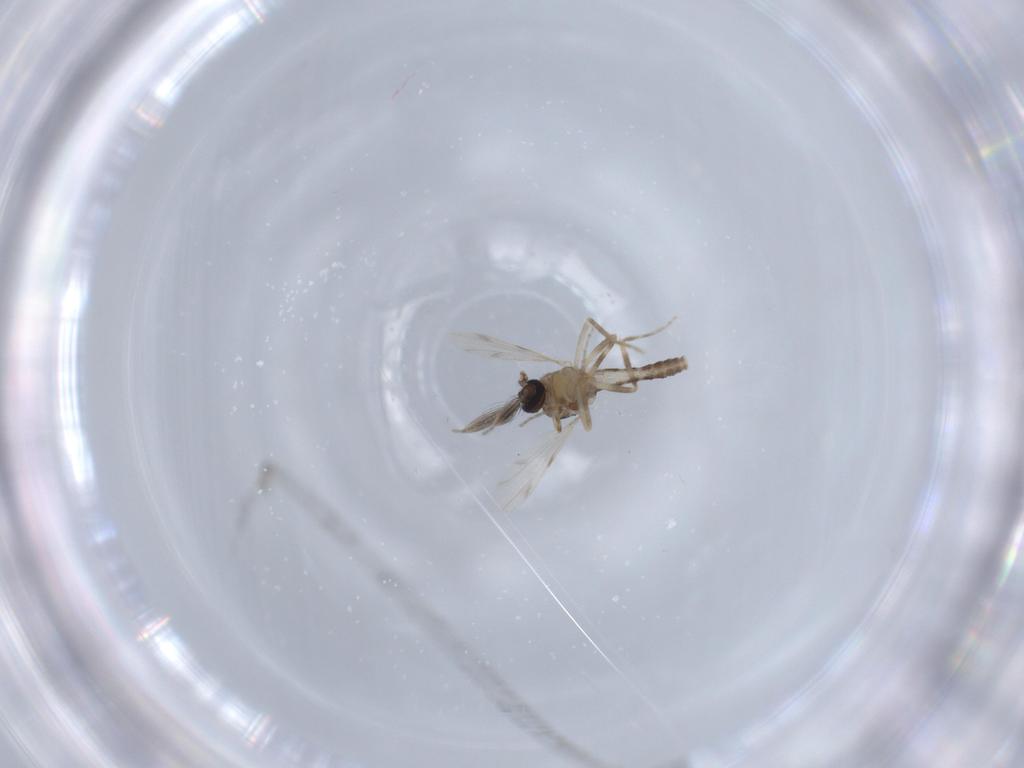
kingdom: Animalia
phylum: Arthropoda
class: Insecta
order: Diptera
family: Ceratopogonidae
